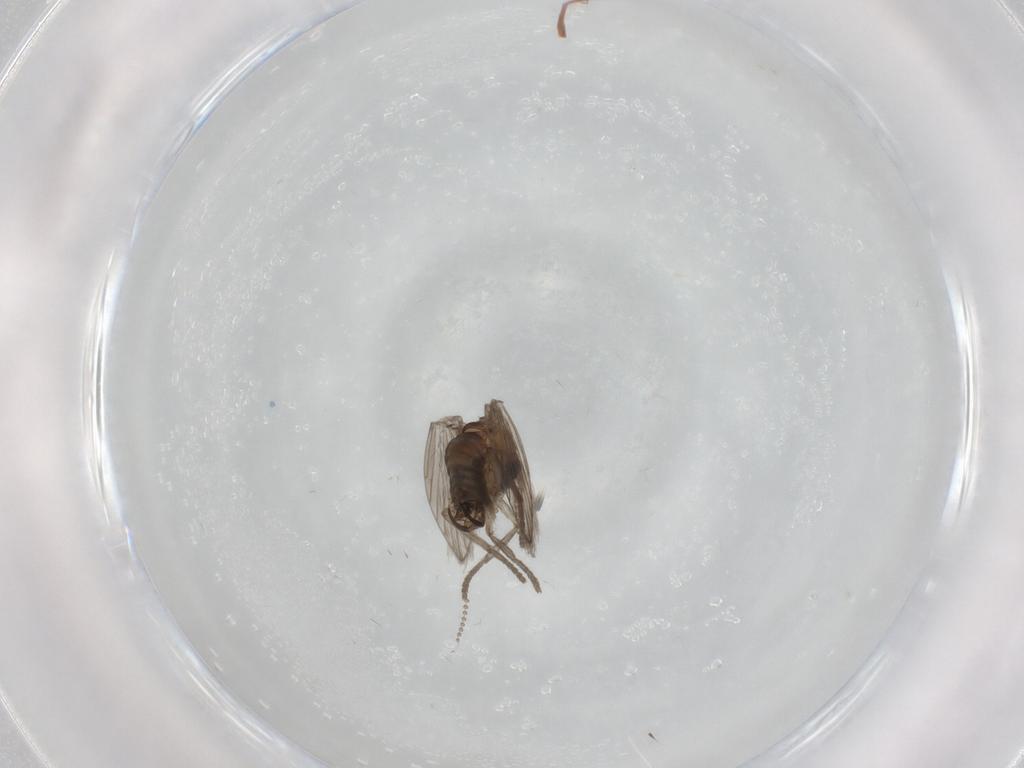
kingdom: Animalia
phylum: Arthropoda
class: Insecta
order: Diptera
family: Psychodidae
